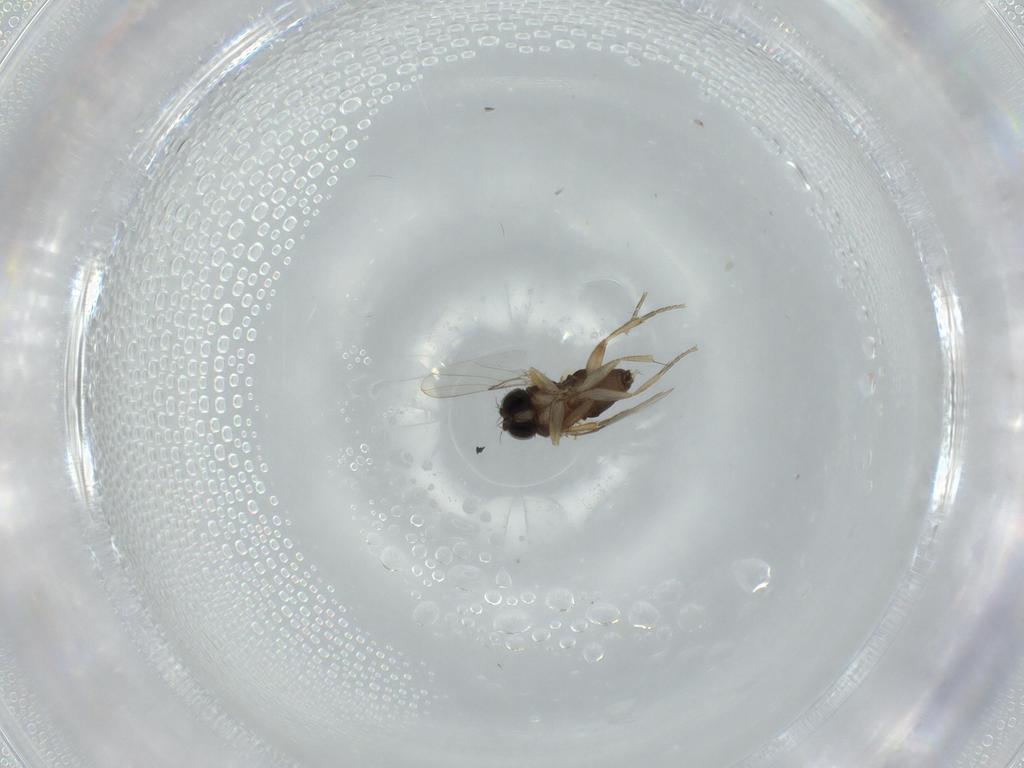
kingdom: Animalia
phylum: Arthropoda
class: Insecta
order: Diptera
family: Phoridae
